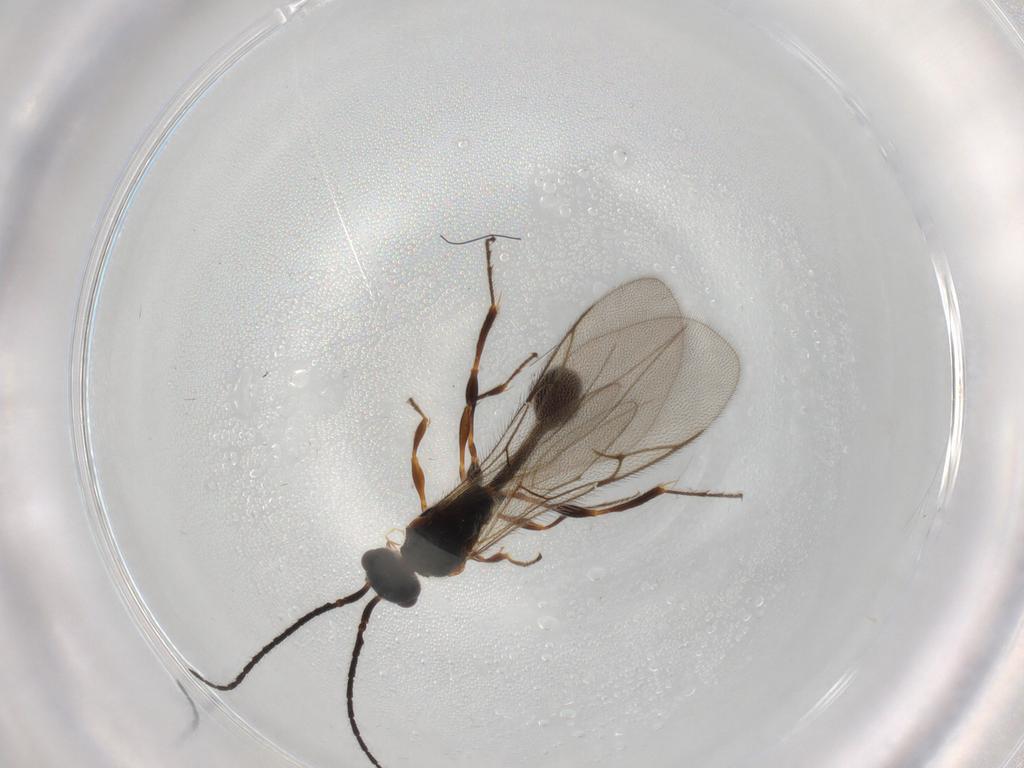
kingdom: Animalia
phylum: Arthropoda
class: Insecta
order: Hymenoptera
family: Diapriidae
